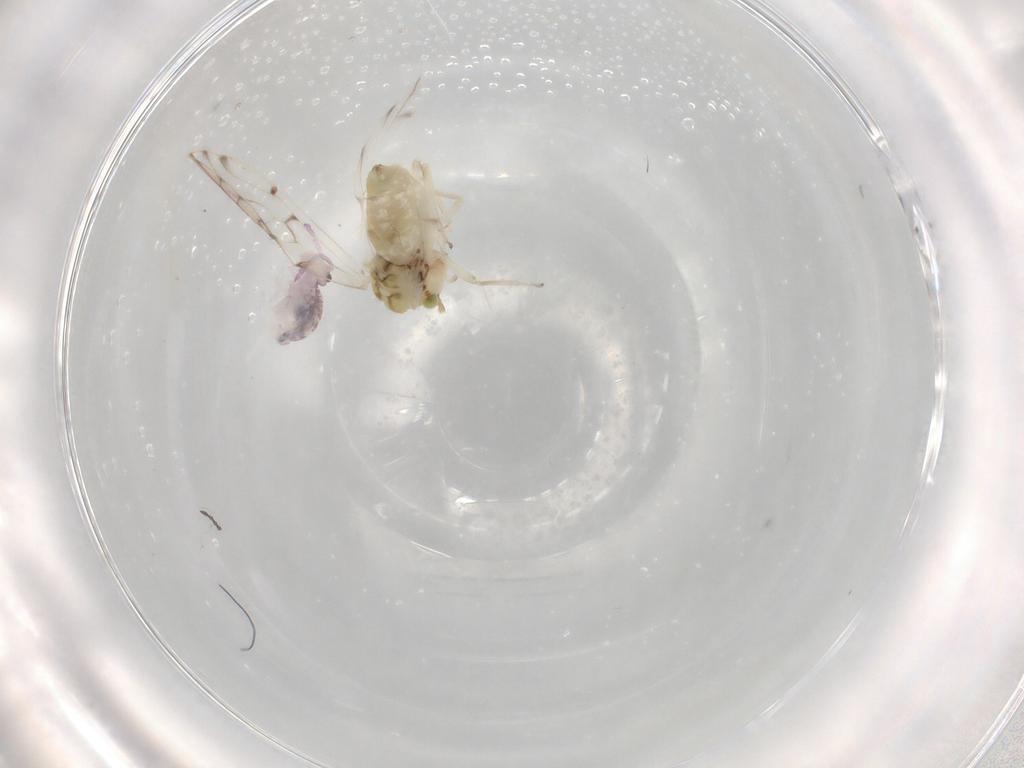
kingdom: Animalia
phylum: Arthropoda
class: Insecta
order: Psocodea
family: Trichopsocidae
